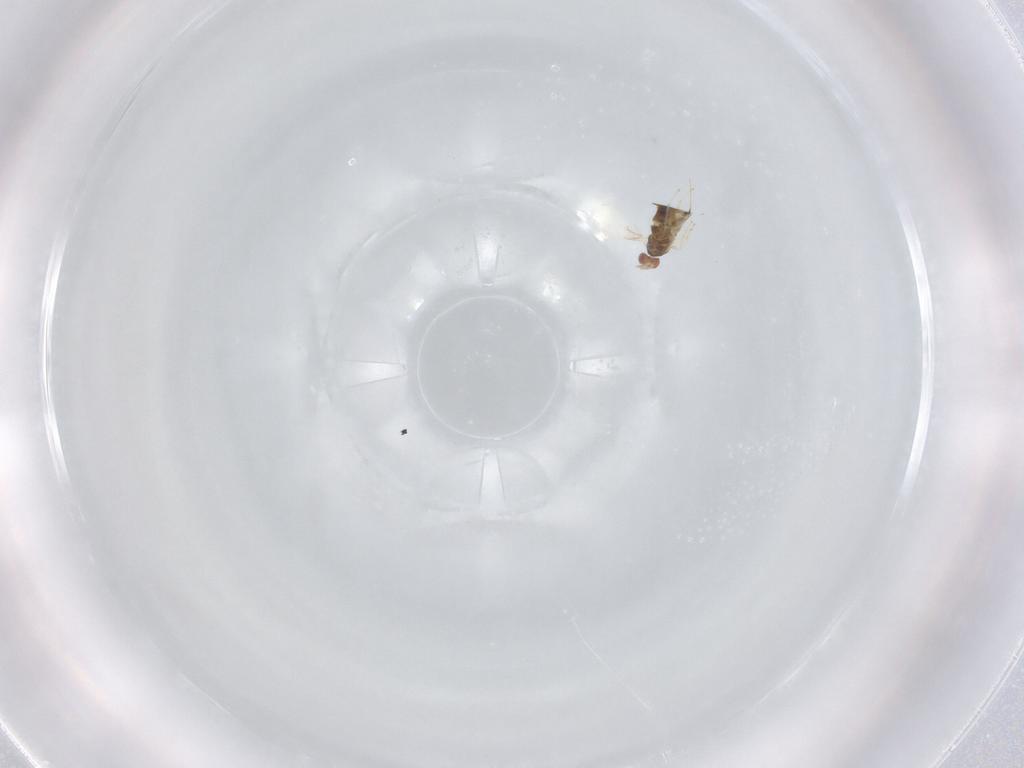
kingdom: Animalia
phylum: Arthropoda
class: Insecta
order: Hymenoptera
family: Trichogrammatidae
